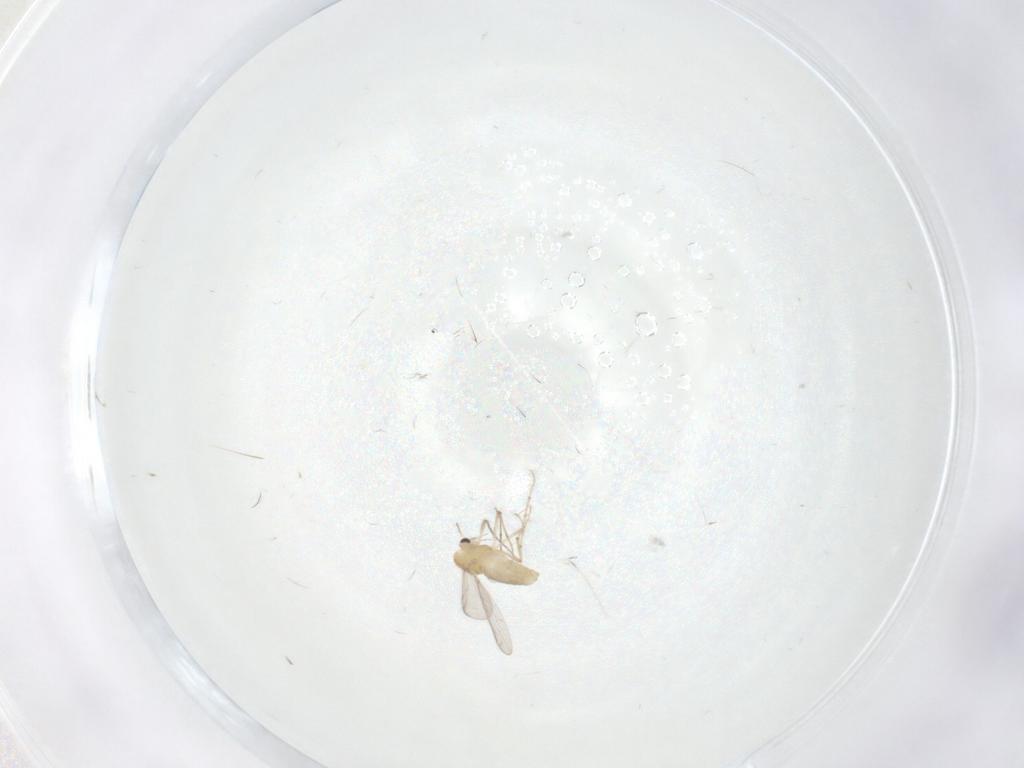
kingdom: Animalia
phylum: Arthropoda
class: Insecta
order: Diptera
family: Chironomidae
